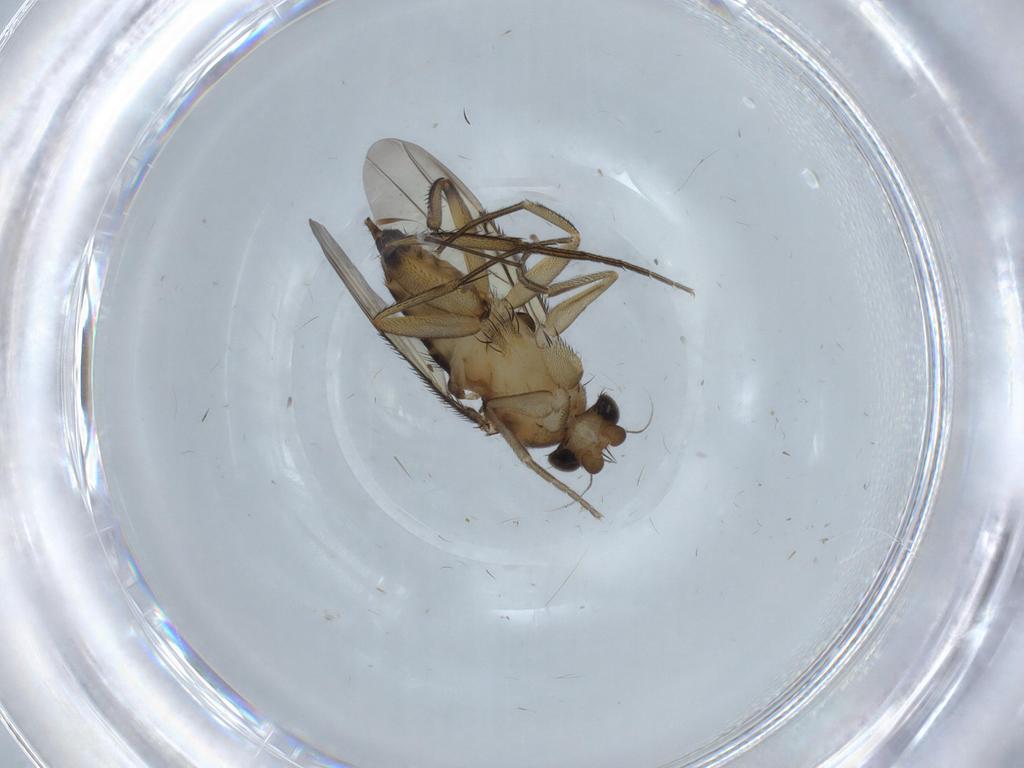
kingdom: Animalia
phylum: Arthropoda
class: Insecta
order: Diptera
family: Phoridae
